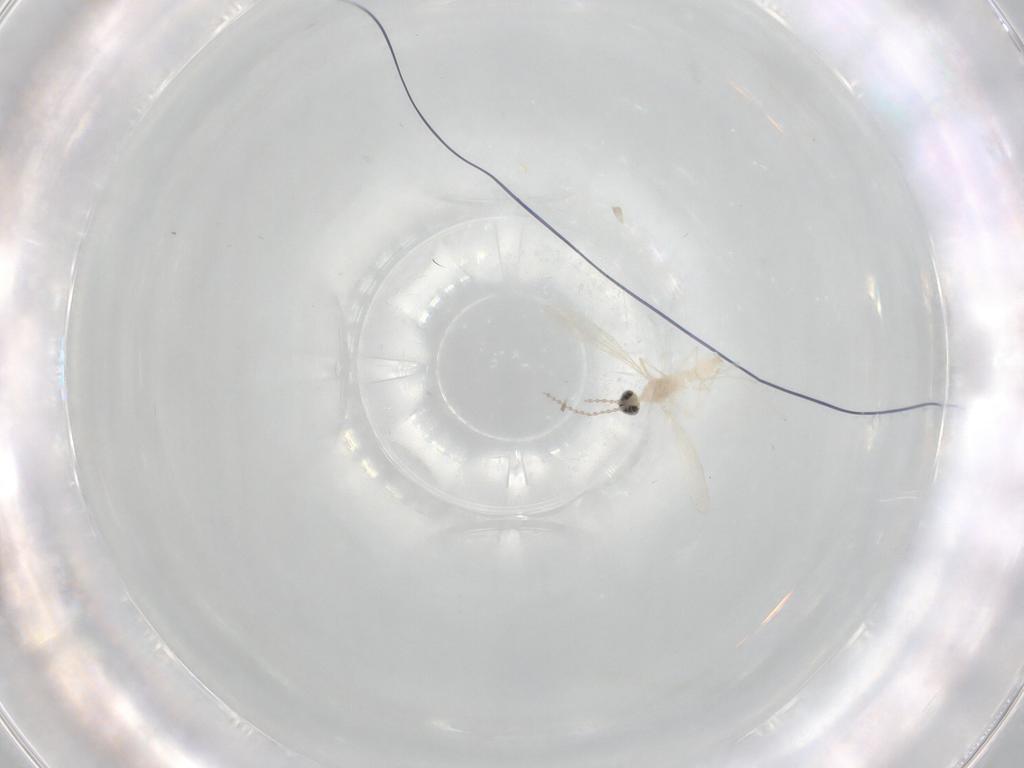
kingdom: Animalia
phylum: Arthropoda
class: Insecta
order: Diptera
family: Cecidomyiidae
